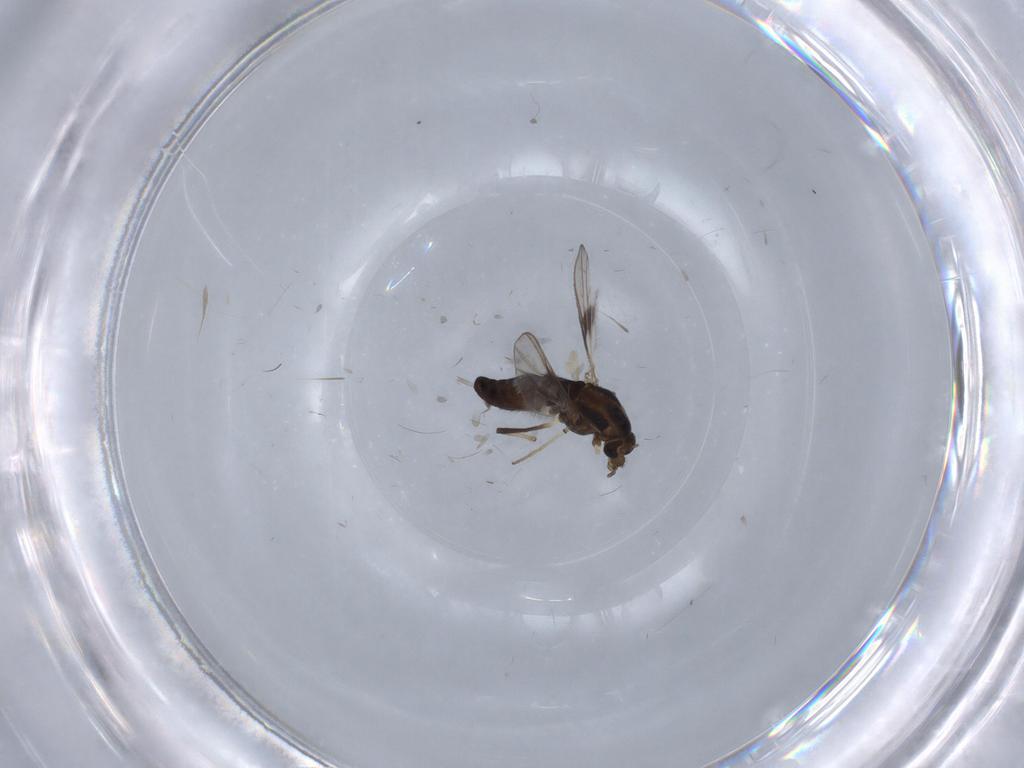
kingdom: Animalia
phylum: Arthropoda
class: Insecta
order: Diptera
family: Chironomidae
